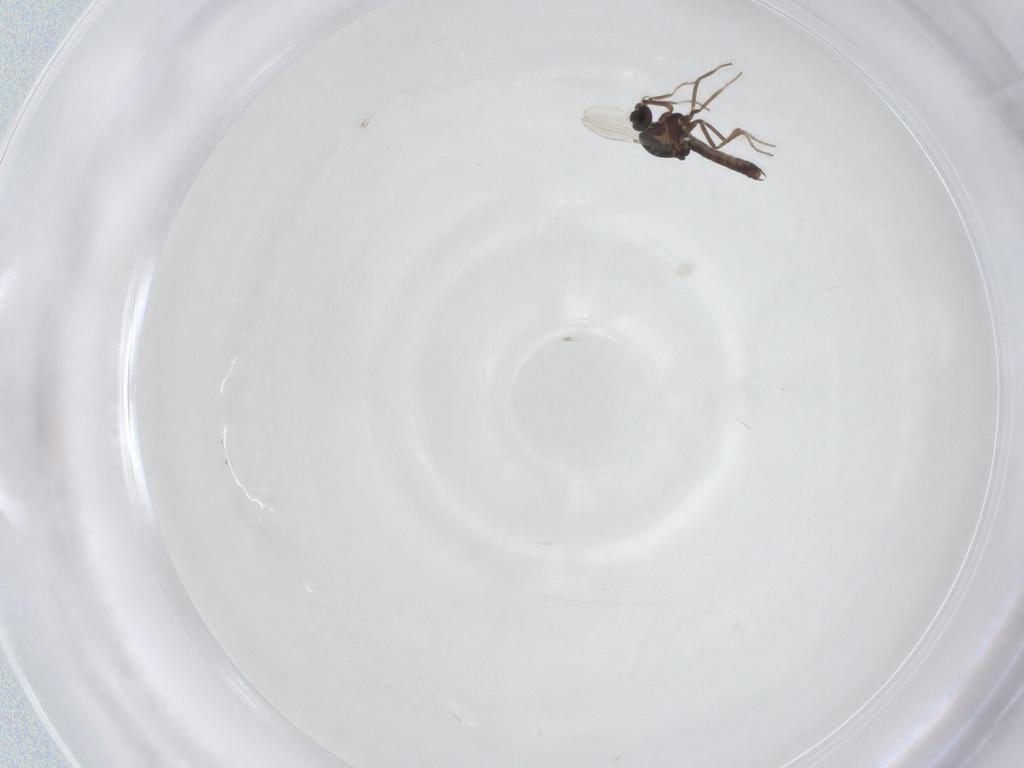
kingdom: Animalia
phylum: Arthropoda
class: Insecta
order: Diptera
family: Ceratopogonidae
